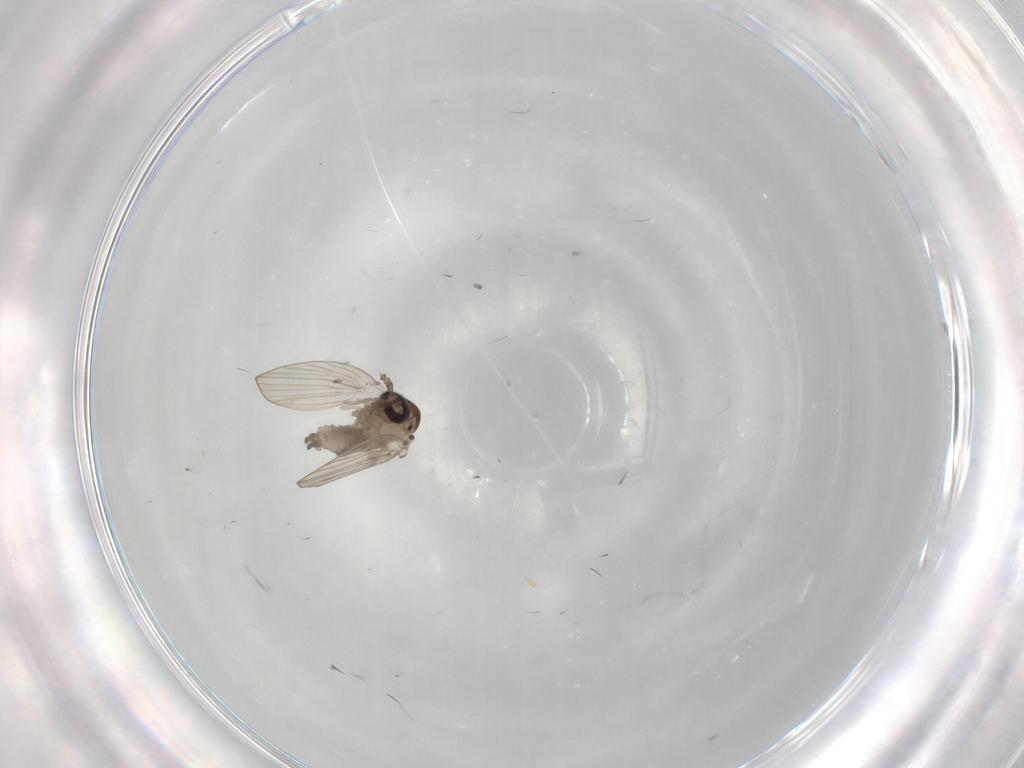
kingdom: Animalia
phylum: Arthropoda
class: Insecta
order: Diptera
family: Psychodidae
